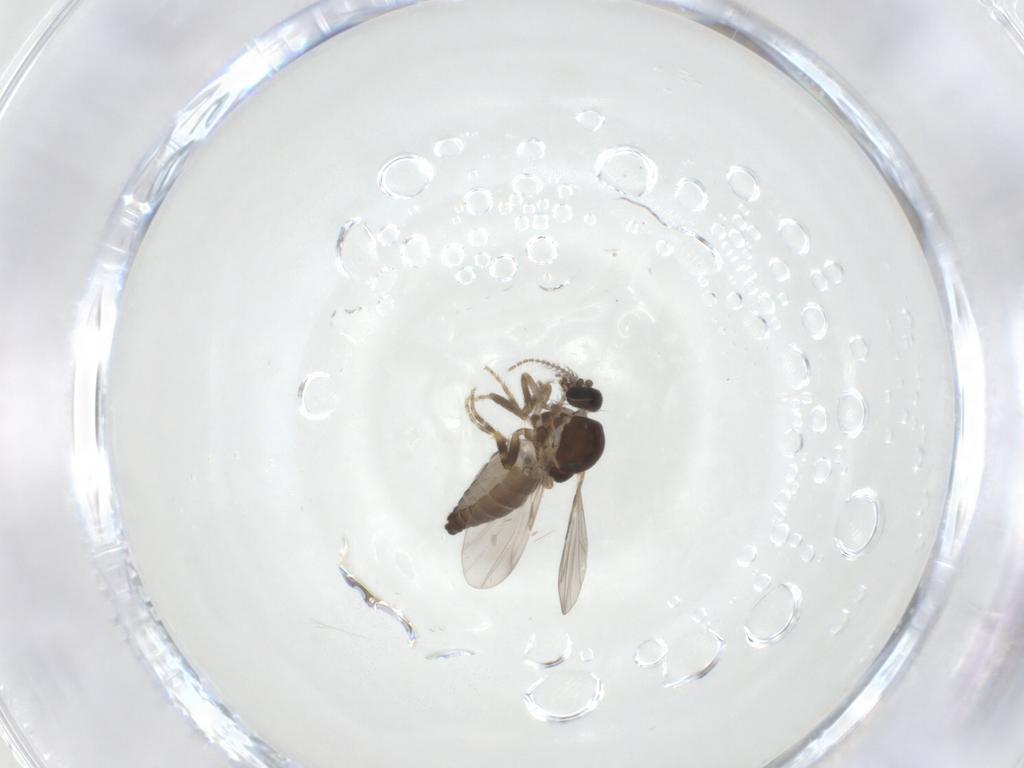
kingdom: Animalia
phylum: Arthropoda
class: Insecta
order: Diptera
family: Ceratopogonidae
